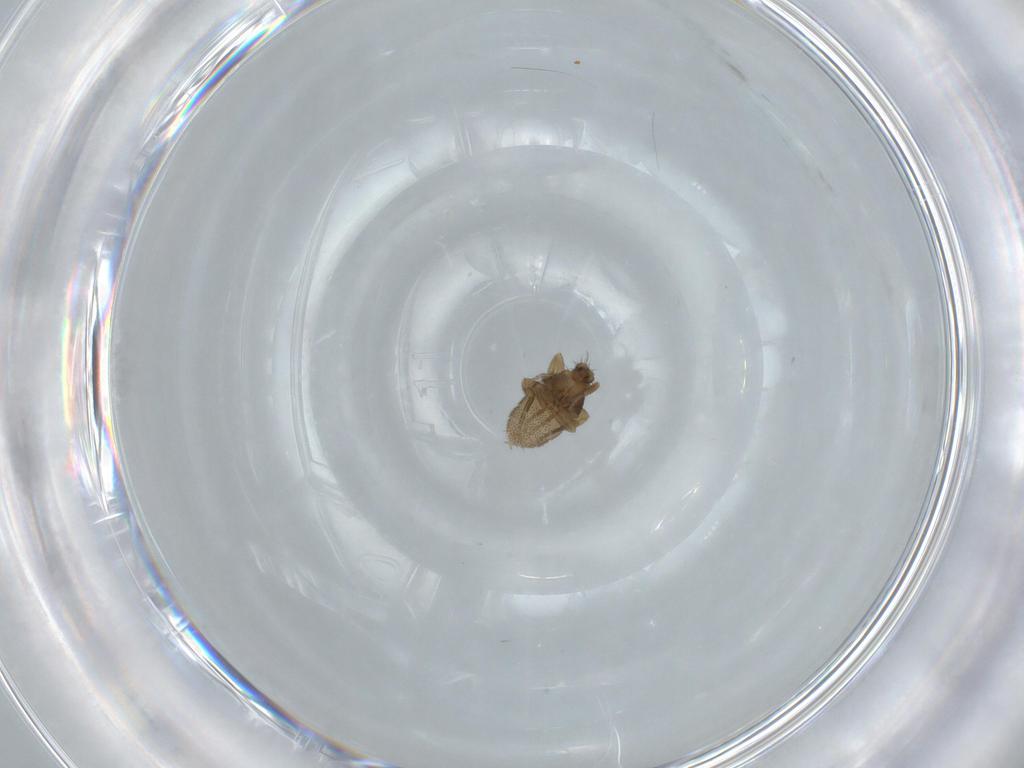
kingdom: Animalia
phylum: Arthropoda
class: Insecta
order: Diptera
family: Phoridae
